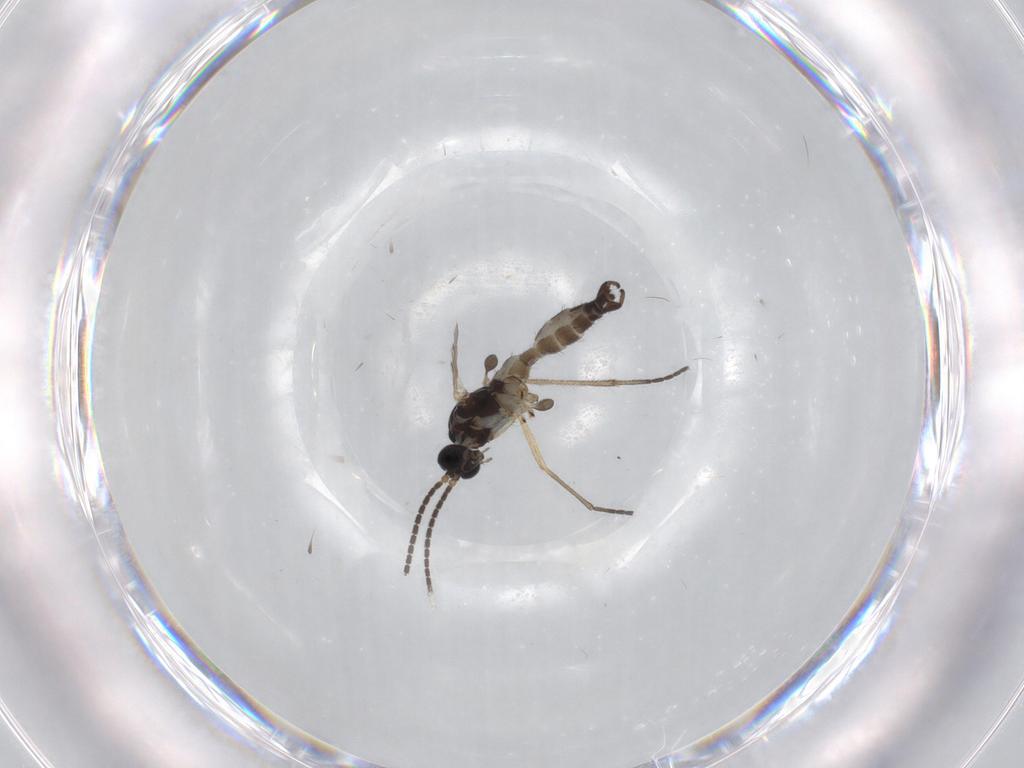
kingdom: Animalia
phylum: Arthropoda
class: Insecta
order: Diptera
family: Sciaridae
